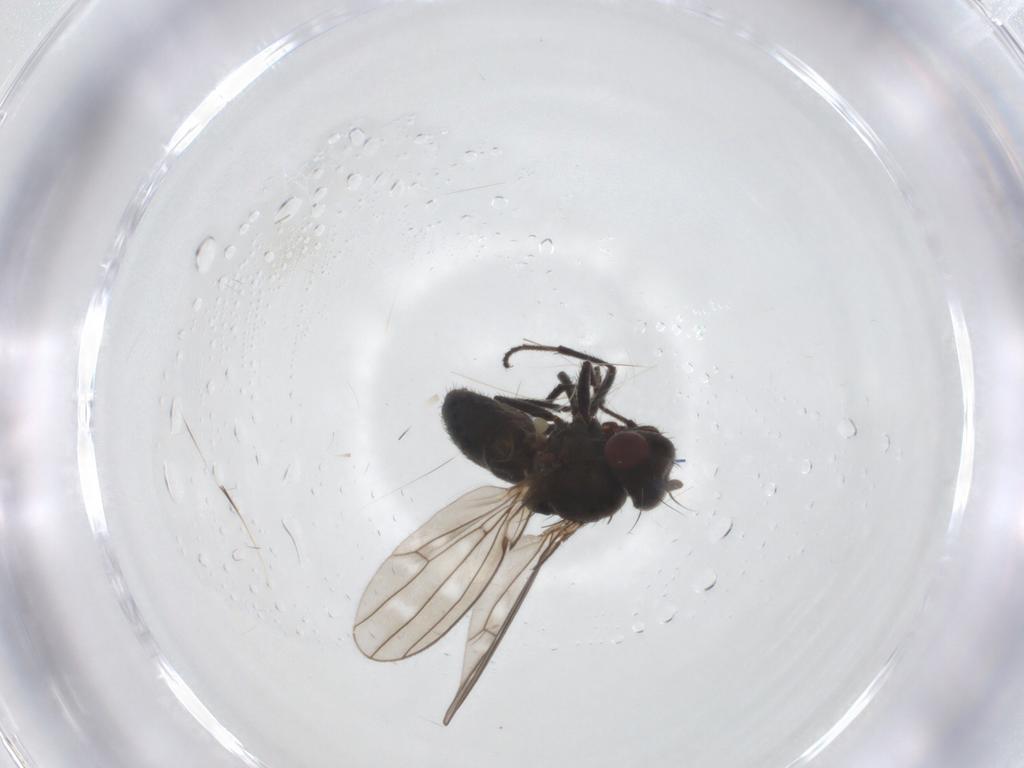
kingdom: Animalia
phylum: Arthropoda
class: Insecta
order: Diptera
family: Ephydridae
